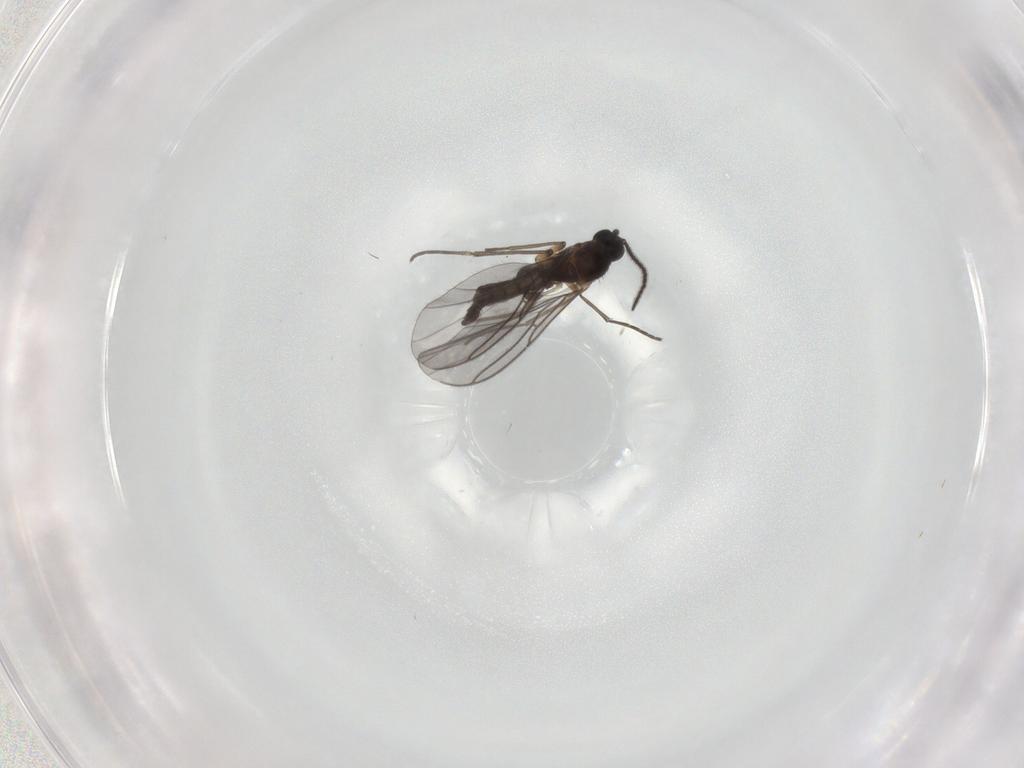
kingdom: Animalia
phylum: Arthropoda
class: Insecta
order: Diptera
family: Sciaridae
